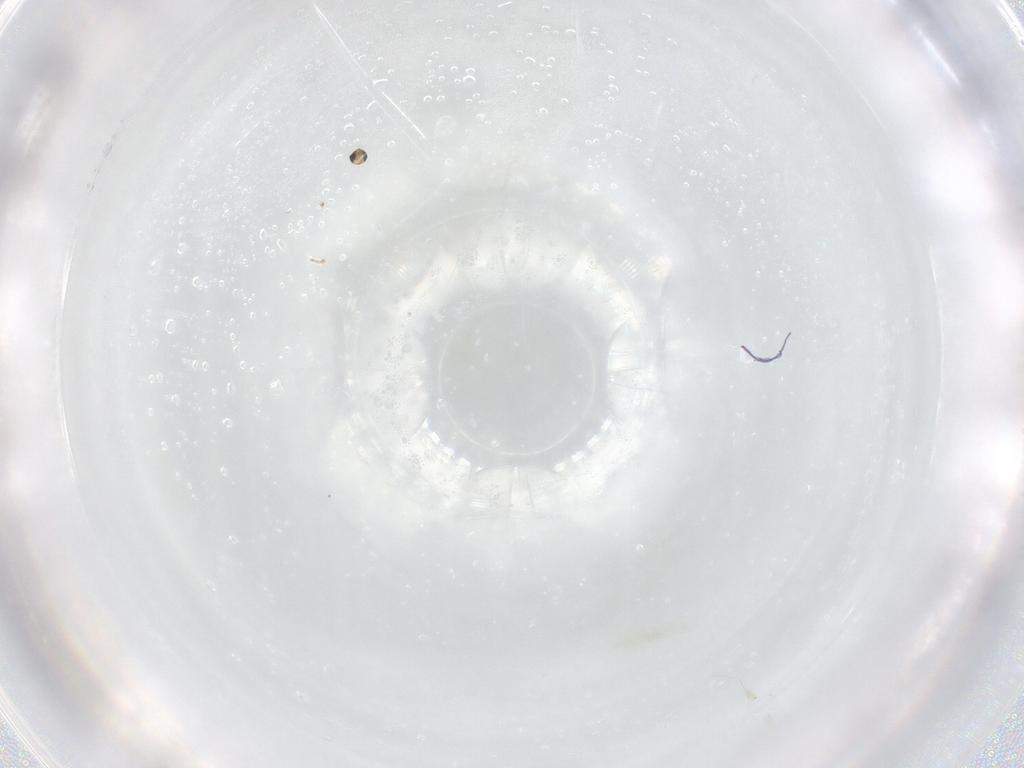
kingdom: Animalia
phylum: Arthropoda
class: Insecta
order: Hymenoptera
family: Trichogrammatidae
